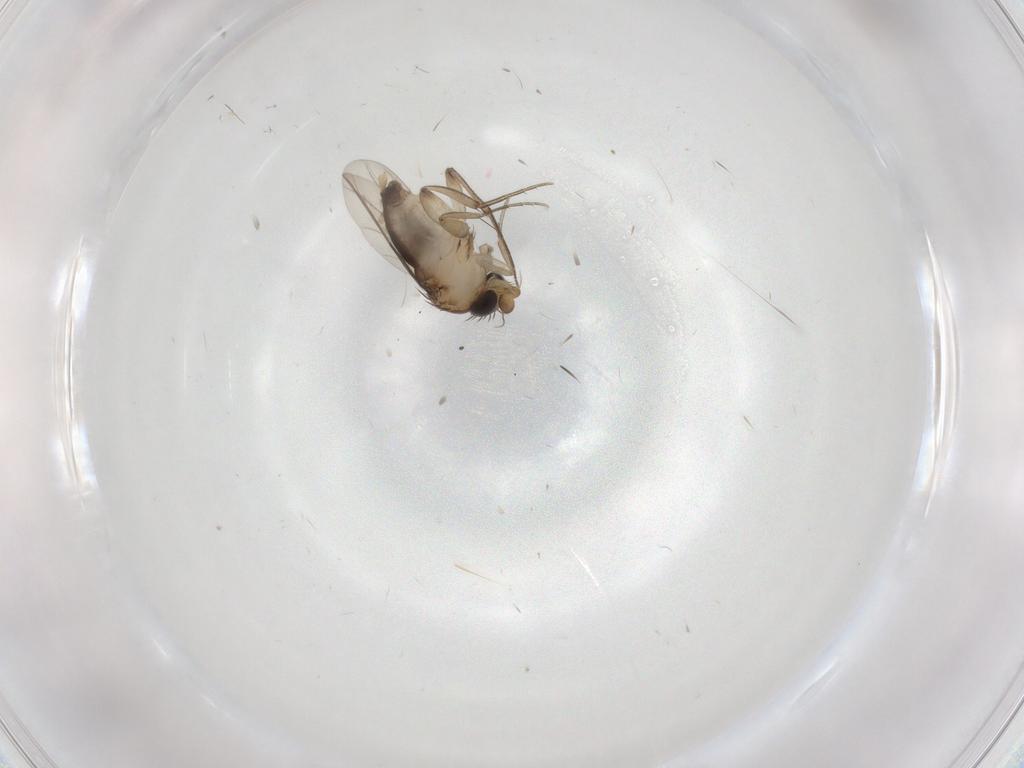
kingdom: Animalia
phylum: Arthropoda
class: Insecta
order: Diptera
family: Phoridae
